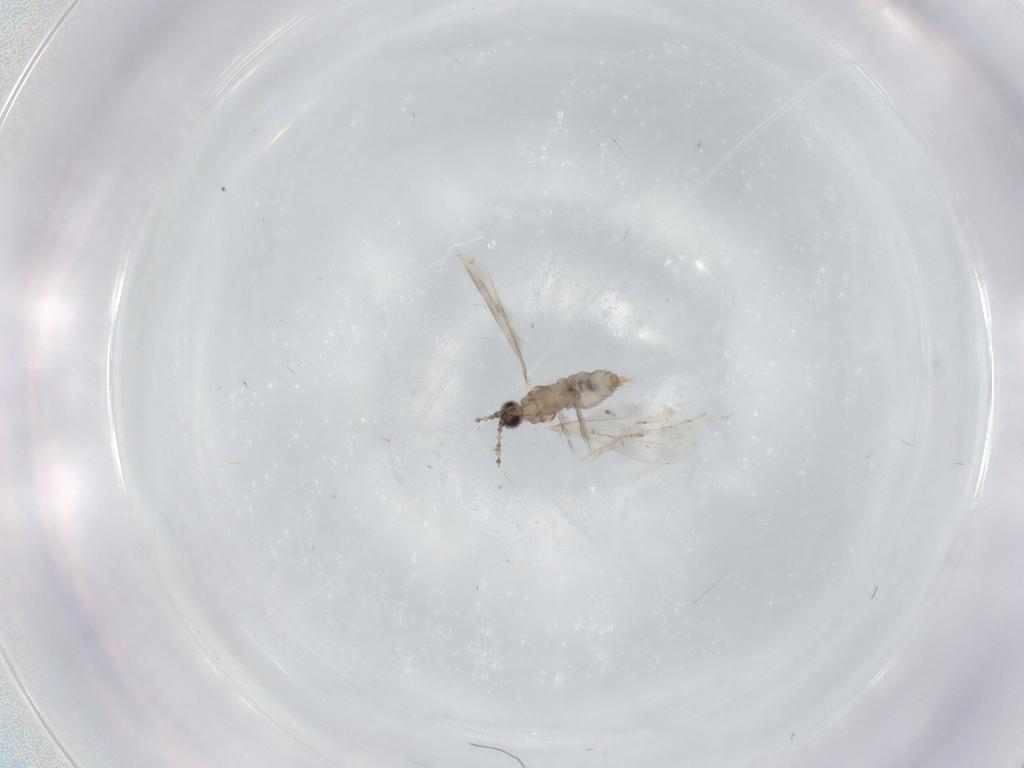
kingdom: Animalia
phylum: Arthropoda
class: Insecta
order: Diptera
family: Cecidomyiidae
